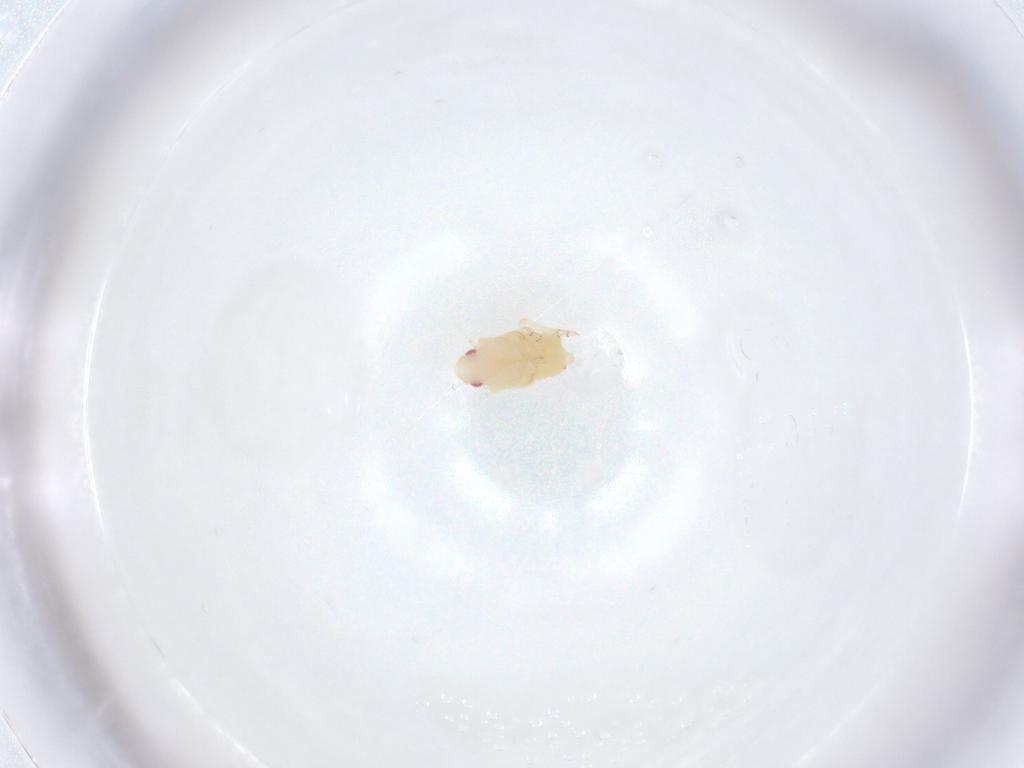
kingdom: Animalia
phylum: Arthropoda
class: Insecta
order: Hemiptera
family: Flatidae
